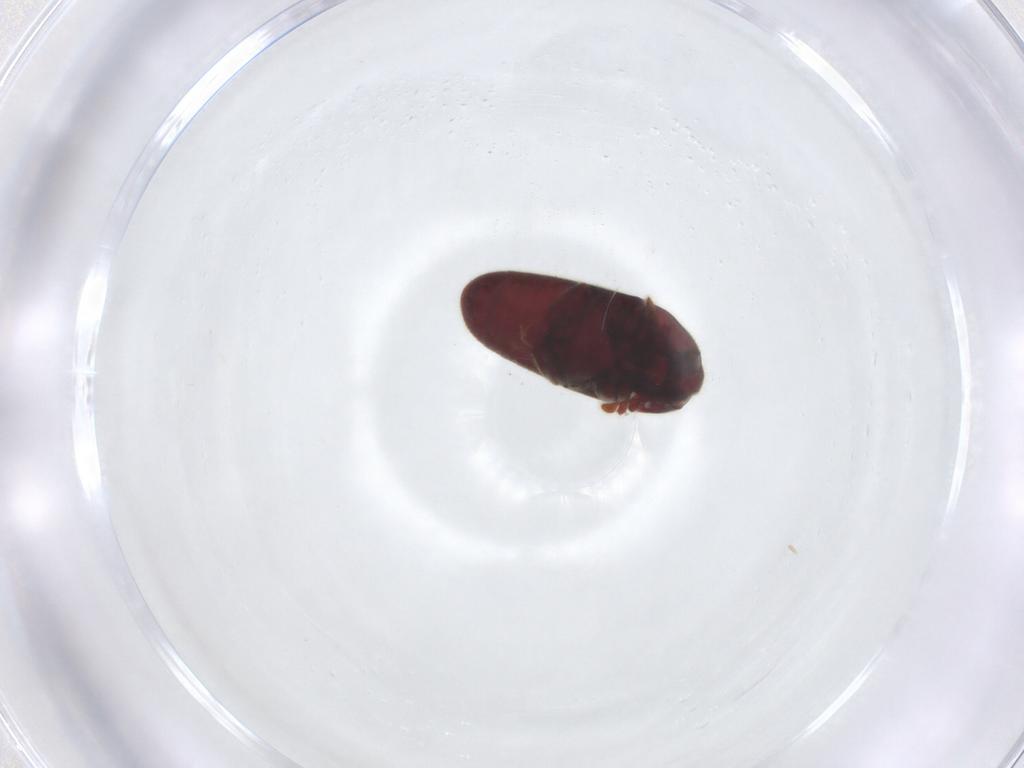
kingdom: Animalia
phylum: Arthropoda
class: Insecta
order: Coleoptera
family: Throscidae
